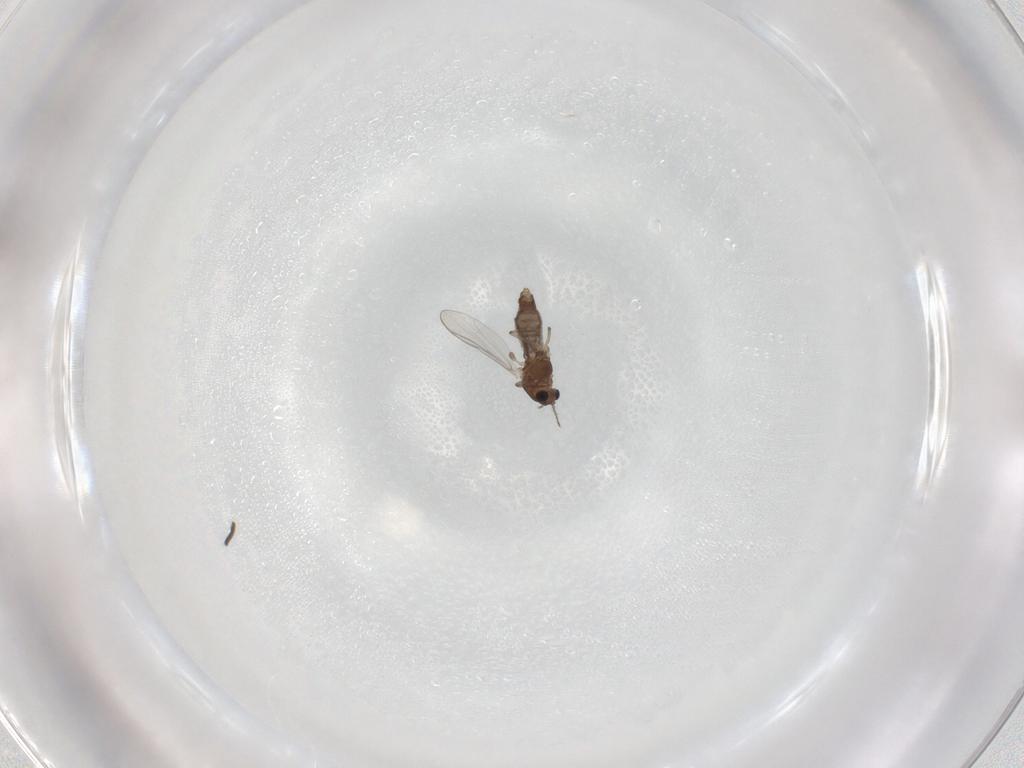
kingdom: Animalia
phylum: Arthropoda
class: Insecta
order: Diptera
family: Chironomidae
